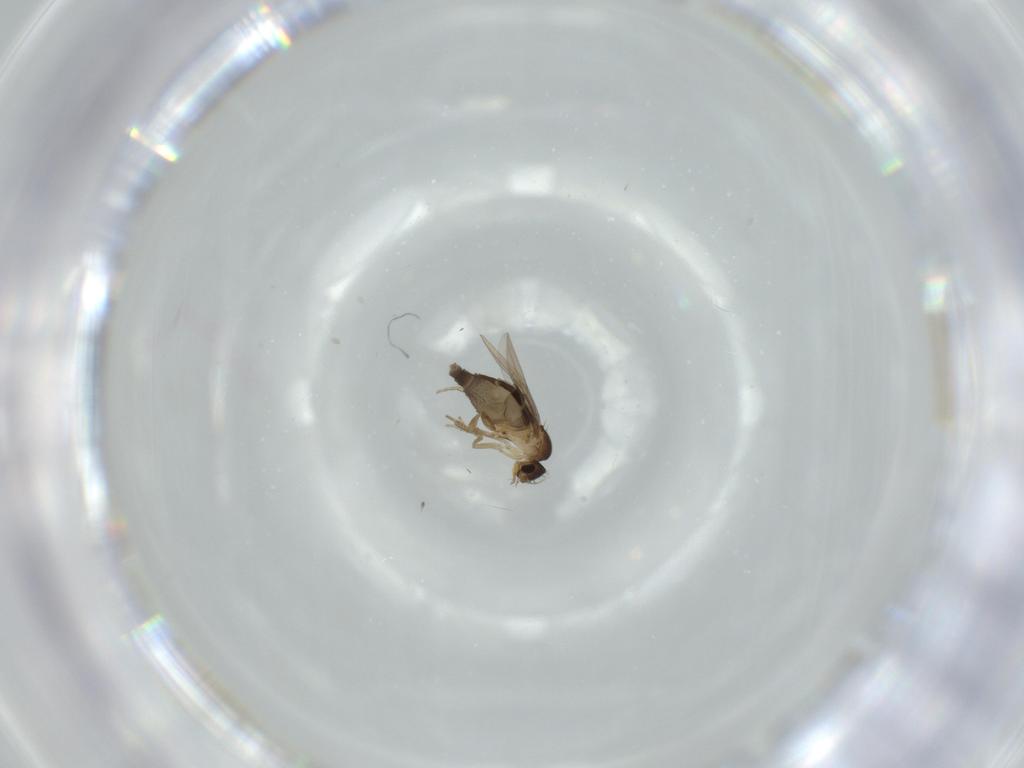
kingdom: Animalia
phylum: Arthropoda
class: Insecta
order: Diptera
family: Phoridae
